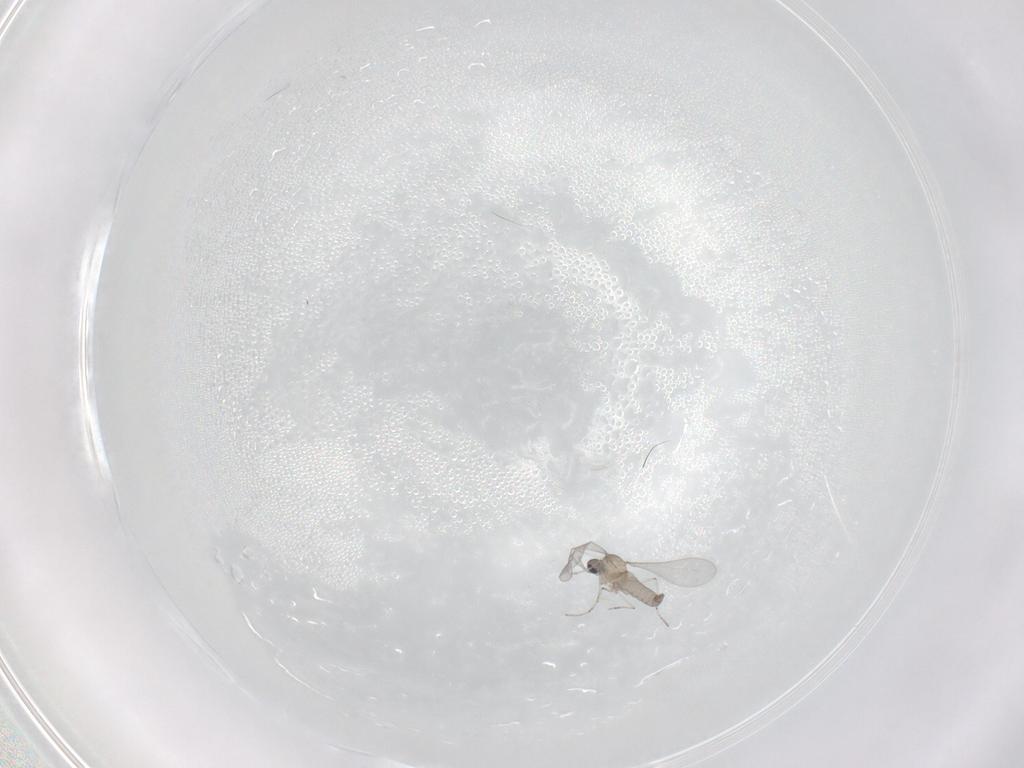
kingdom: Animalia
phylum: Arthropoda
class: Insecta
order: Diptera
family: Cecidomyiidae
